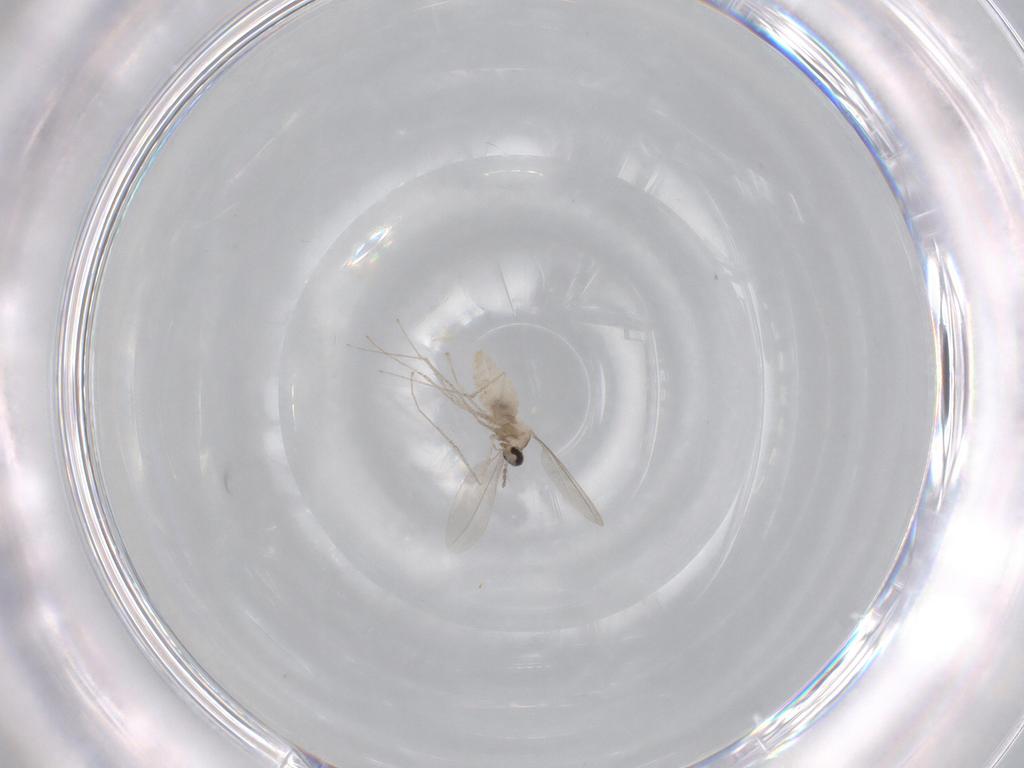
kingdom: Animalia
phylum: Arthropoda
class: Insecta
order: Diptera
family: Cecidomyiidae
